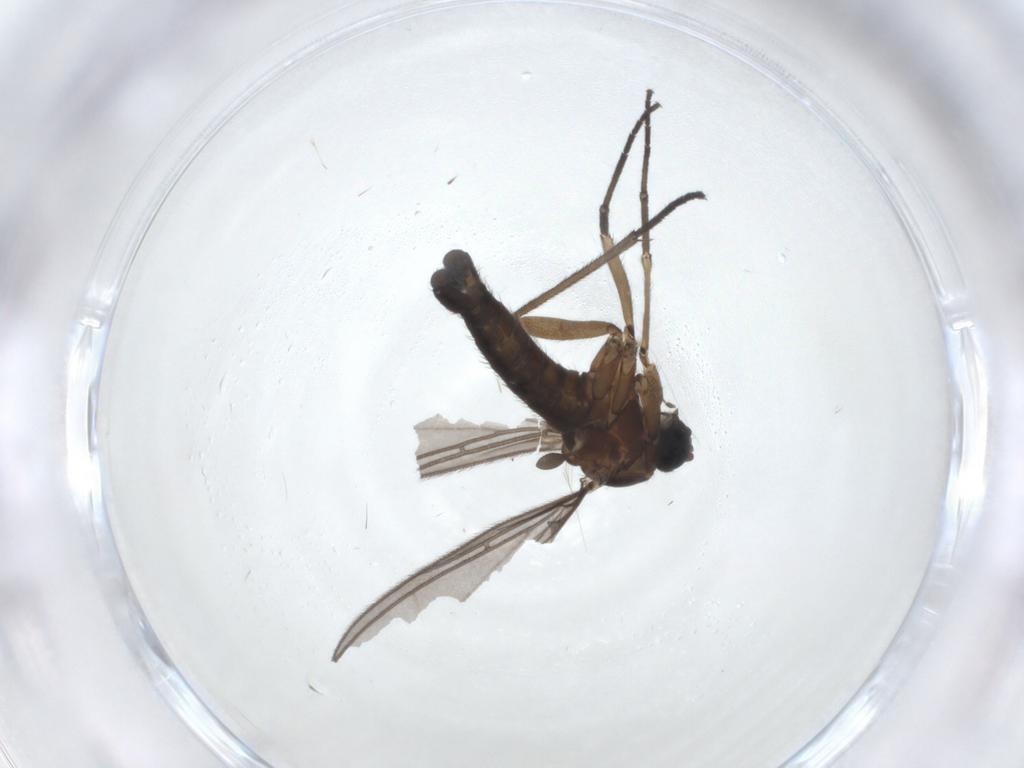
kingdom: Animalia
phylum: Arthropoda
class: Insecta
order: Diptera
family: Sciaridae
